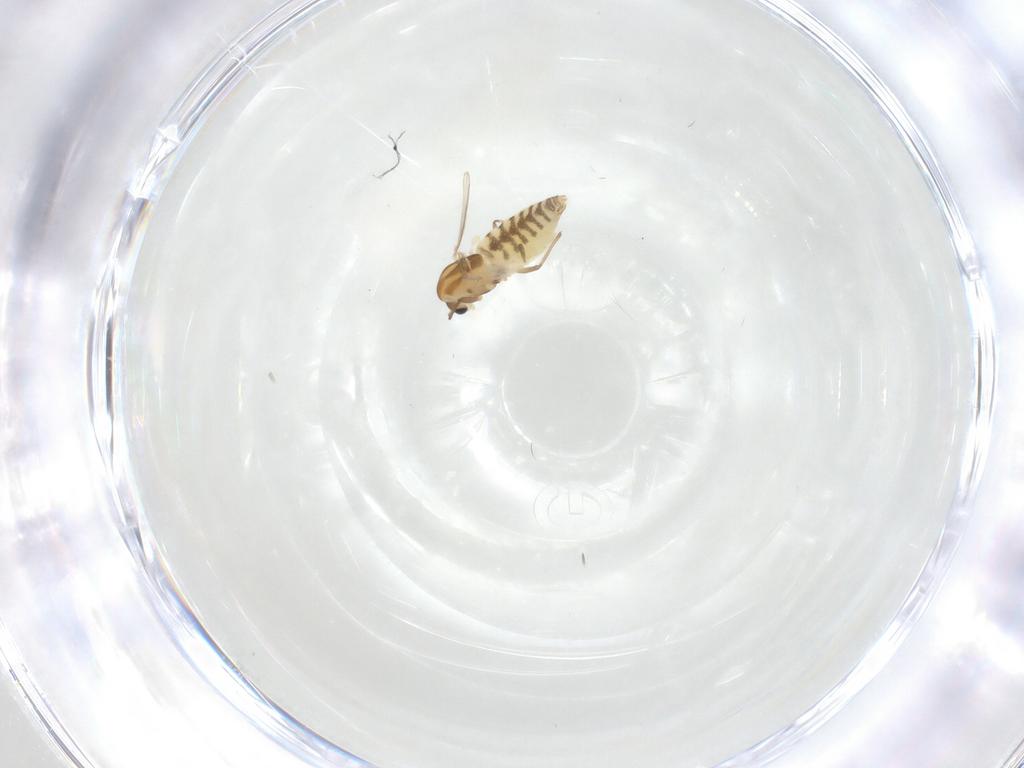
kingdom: Animalia
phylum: Arthropoda
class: Insecta
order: Diptera
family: Chironomidae
